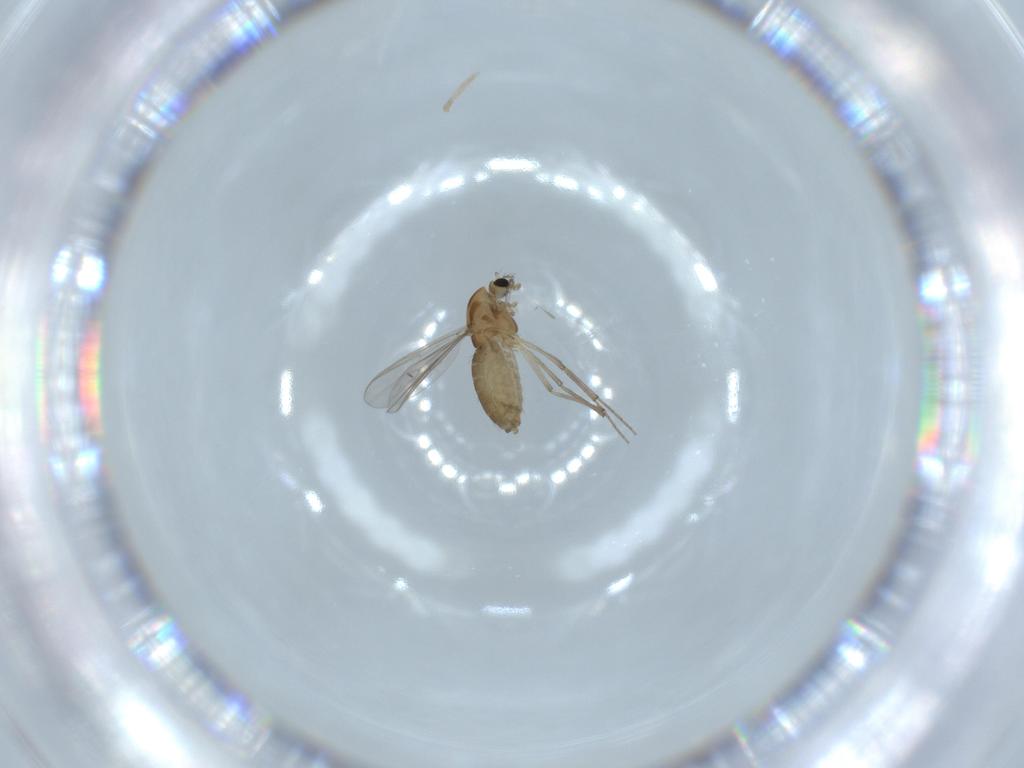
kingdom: Animalia
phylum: Arthropoda
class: Insecta
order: Diptera
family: Chironomidae
